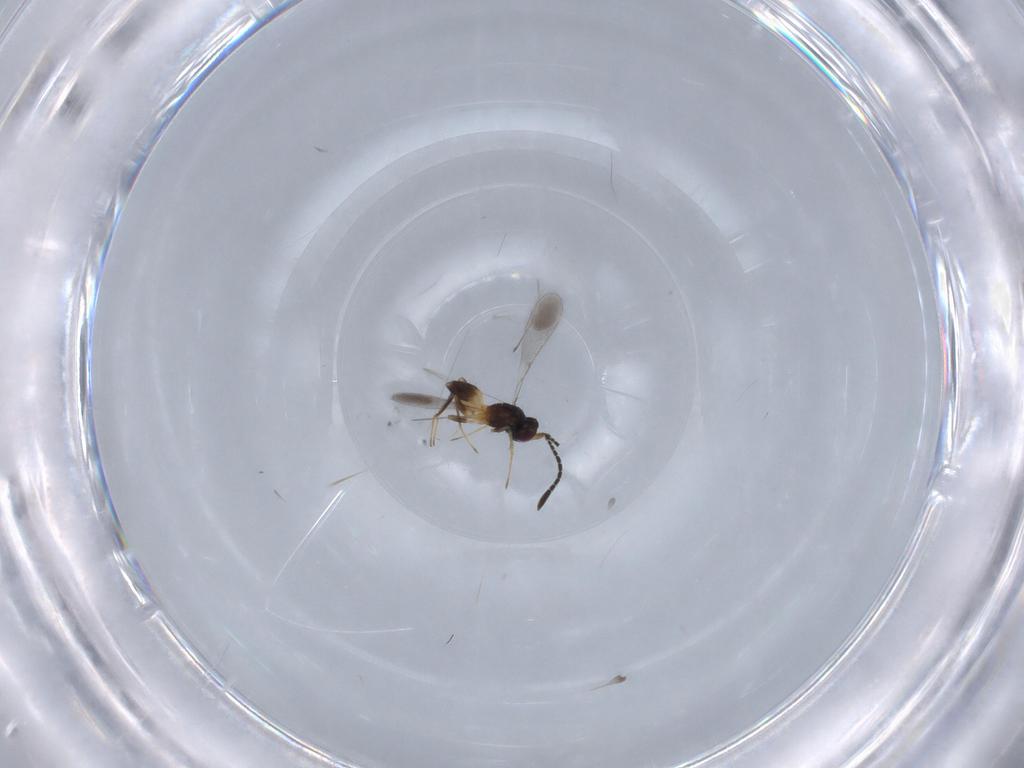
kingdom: Animalia
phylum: Arthropoda
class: Insecta
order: Hymenoptera
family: Mymaridae
